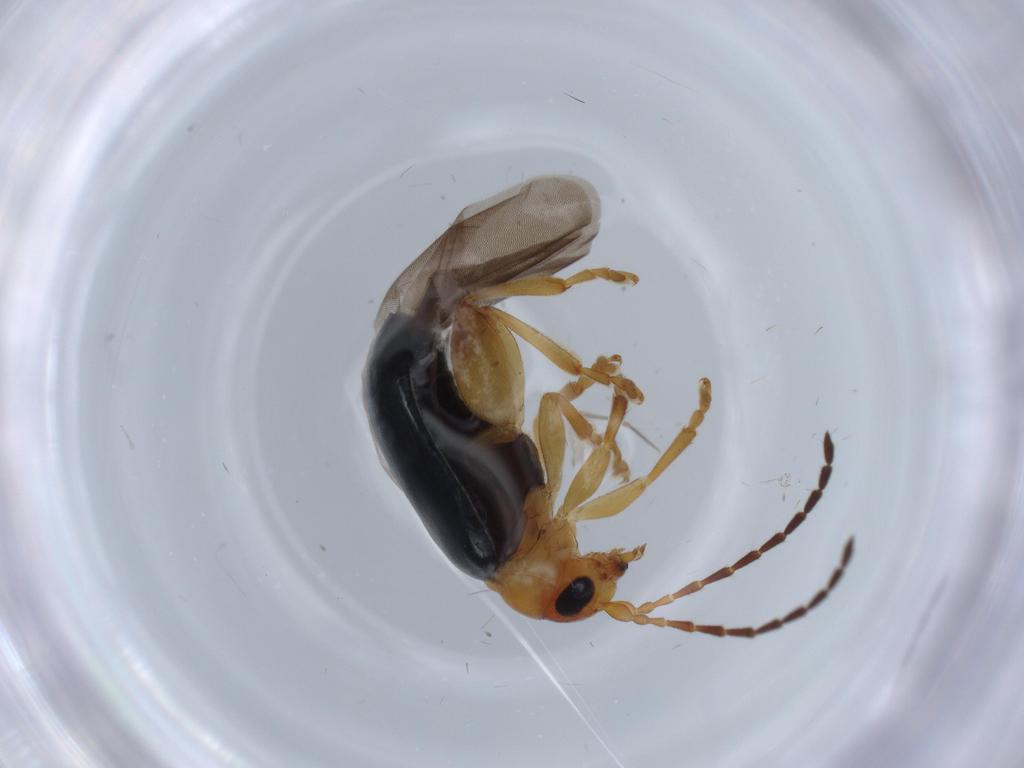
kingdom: Animalia
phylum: Arthropoda
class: Insecta
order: Coleoptera
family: Chrysomelidae
